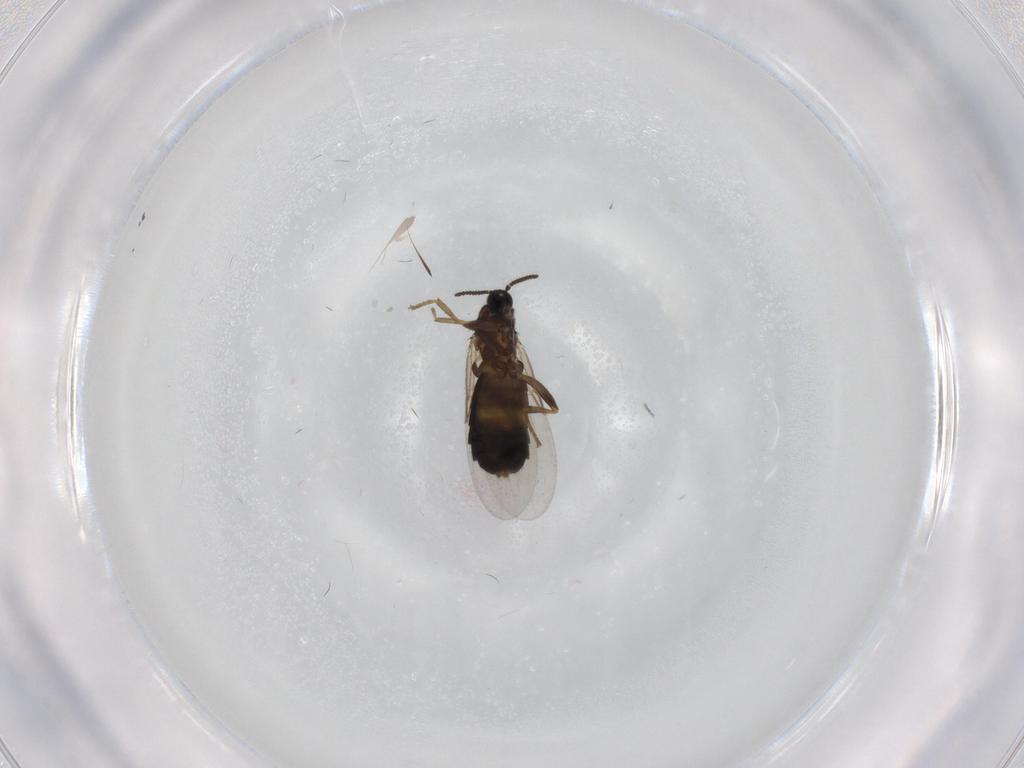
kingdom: Animalia
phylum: Arthropoda
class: Insecta
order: Diptera
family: Scatopsidae
